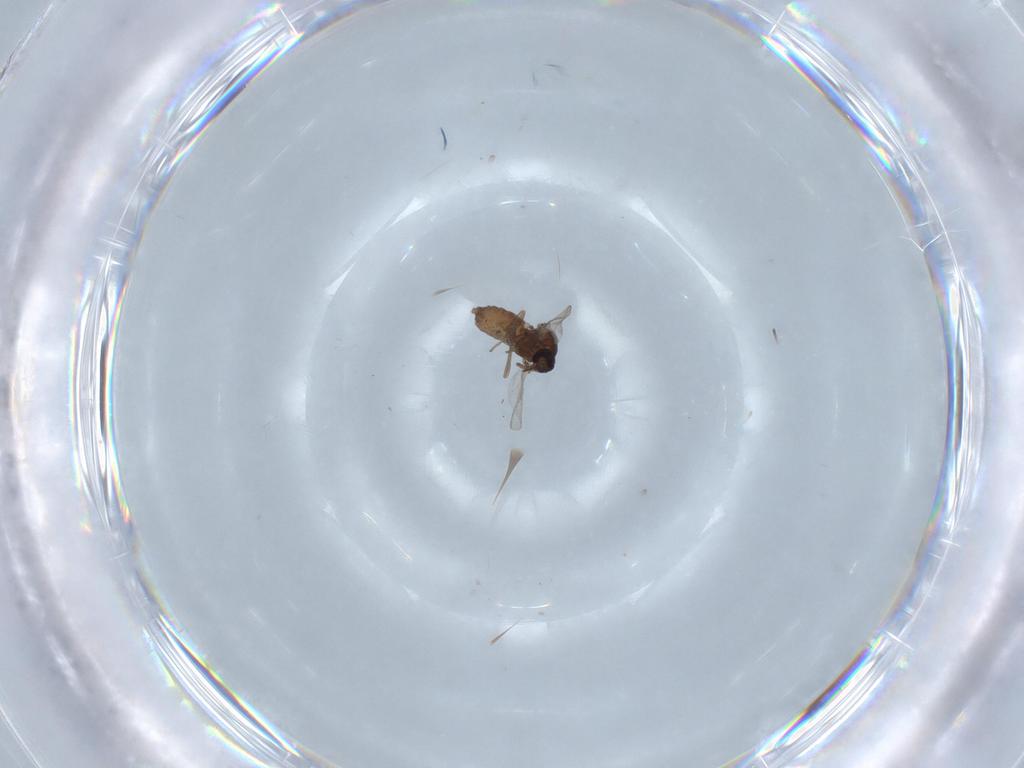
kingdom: Animalia
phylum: Arthropoda
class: Insecta
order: Diptera
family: Ceratopogonidae
